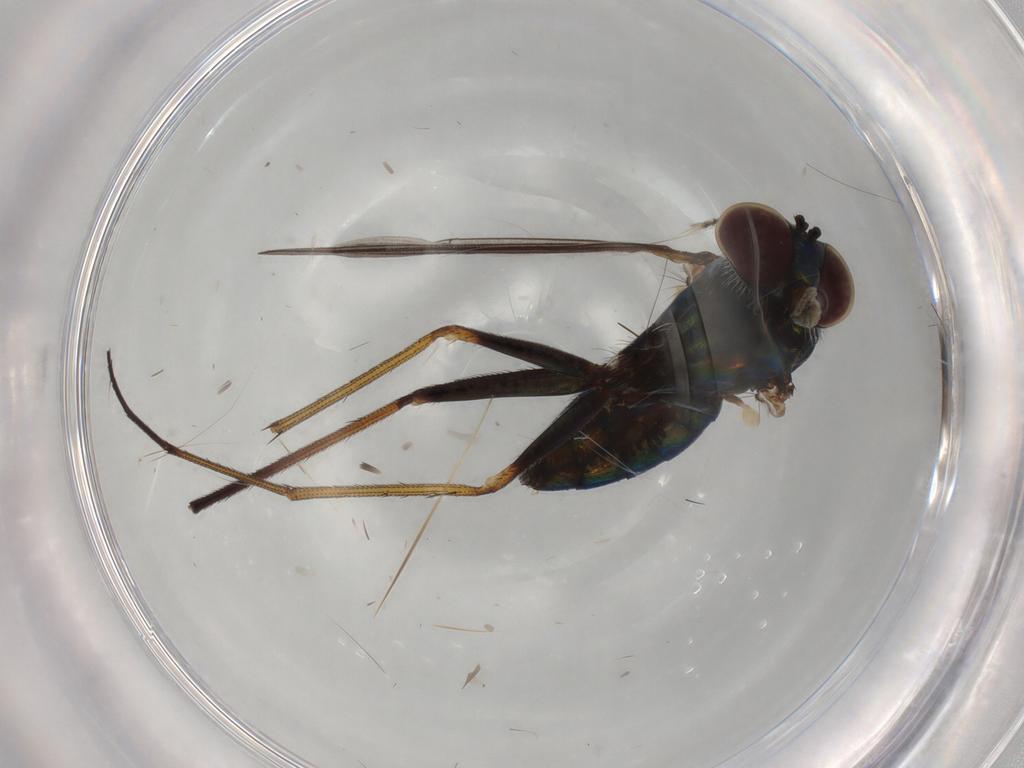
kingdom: Animalia
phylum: Arthropoda
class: Insecta
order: Diptera
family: Dolichopodidae
